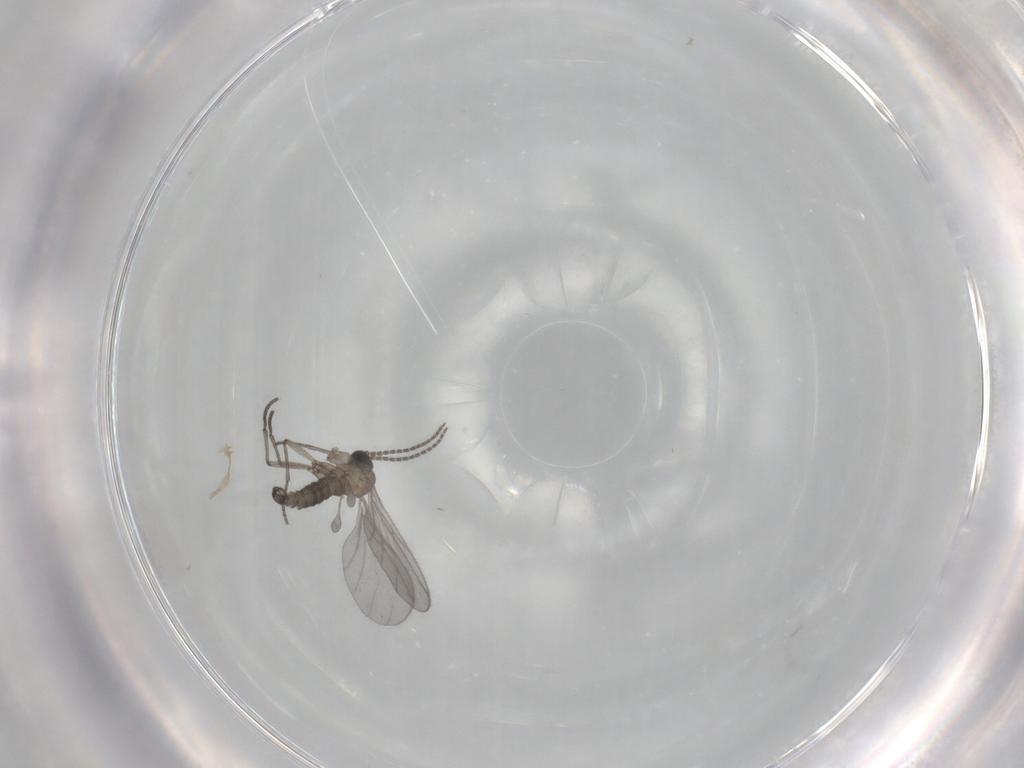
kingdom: Animalia
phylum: Arthropoda
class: Insecta
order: Diptera
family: Sciaridae
